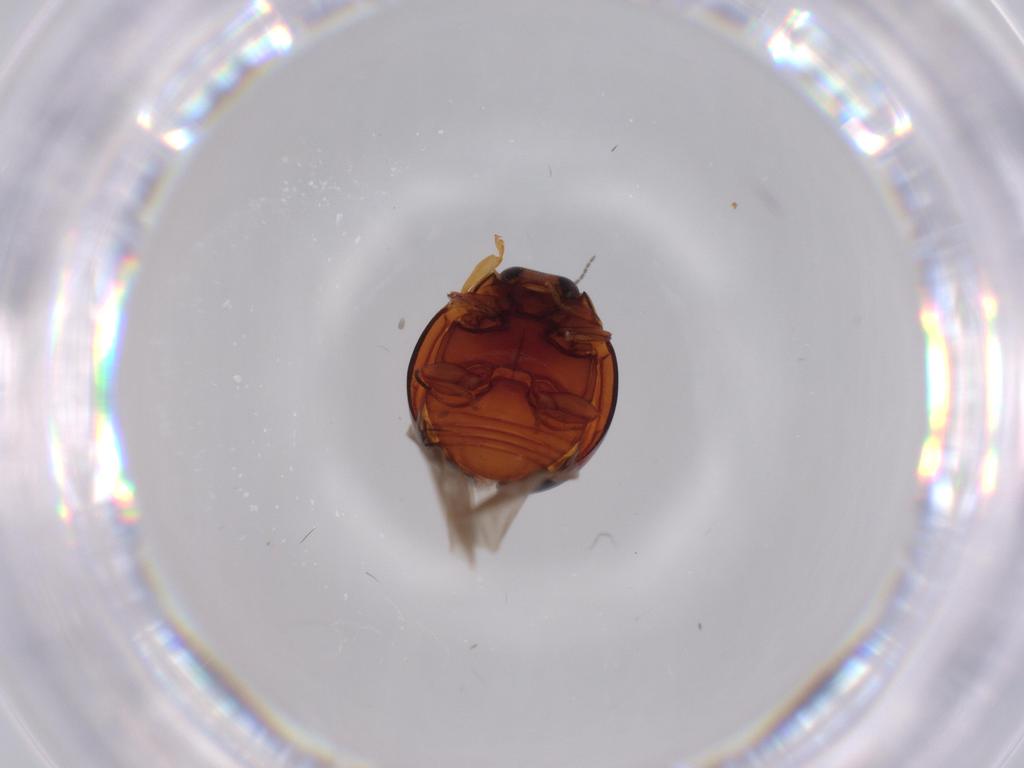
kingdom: Animalia
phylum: Arthropoda
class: Insecta
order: Coleoptera
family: Coccinellidae
